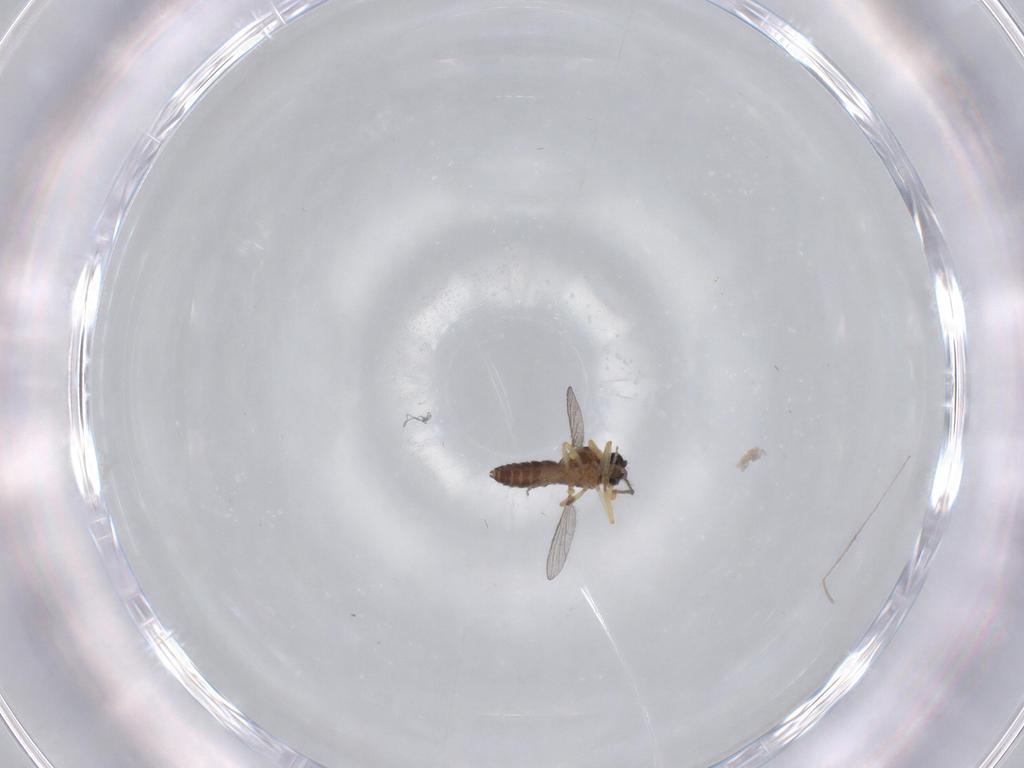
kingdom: Animalia
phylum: Arthropoda
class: Insecta
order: Diptera
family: Ceratopogonidae
